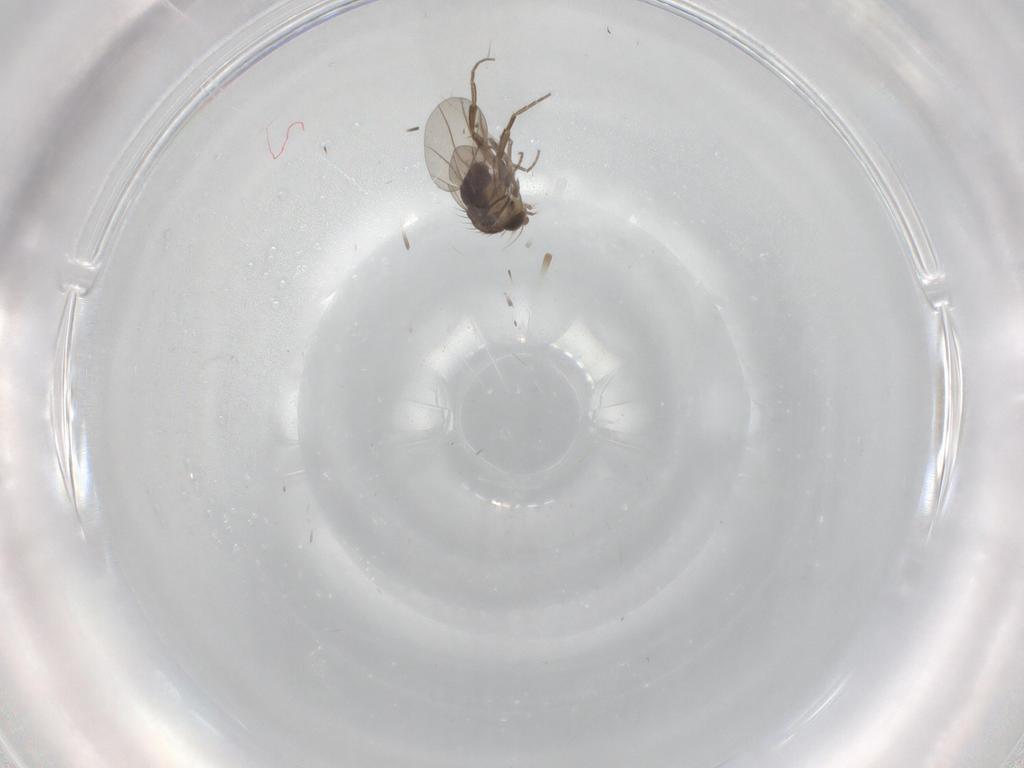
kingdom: Animalia
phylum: Arthropoda
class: Insecta
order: Diptera
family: Phoridae
